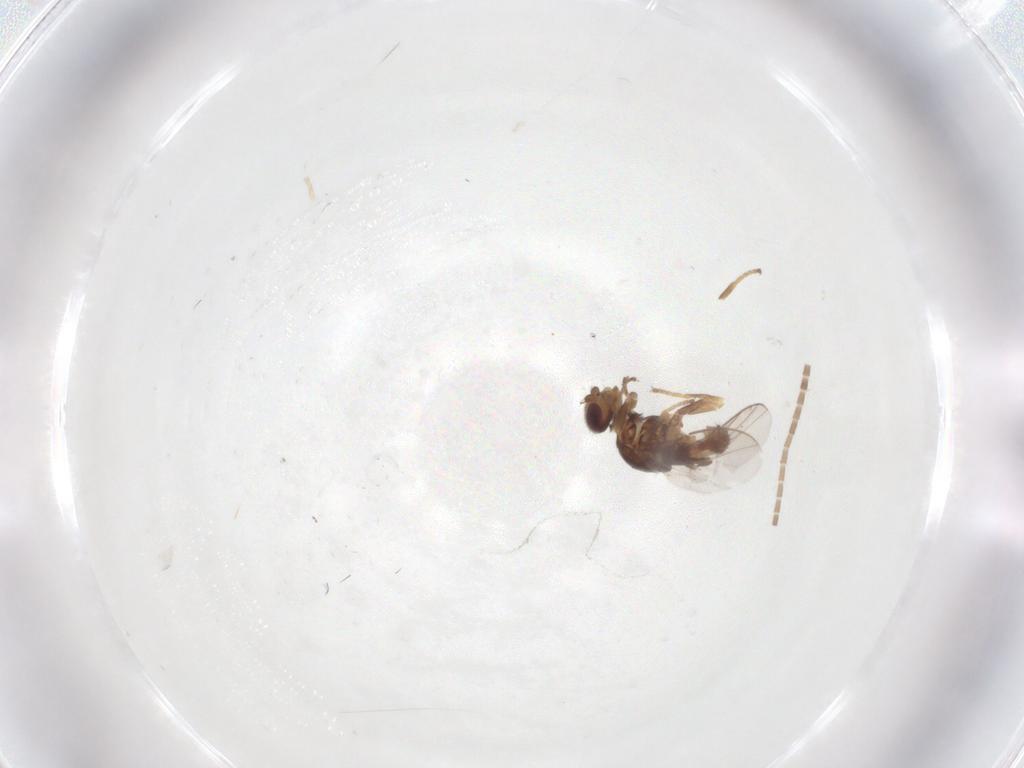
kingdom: Animalia
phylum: Arthropoda
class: Insecta
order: Diptera
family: Chloropidae
